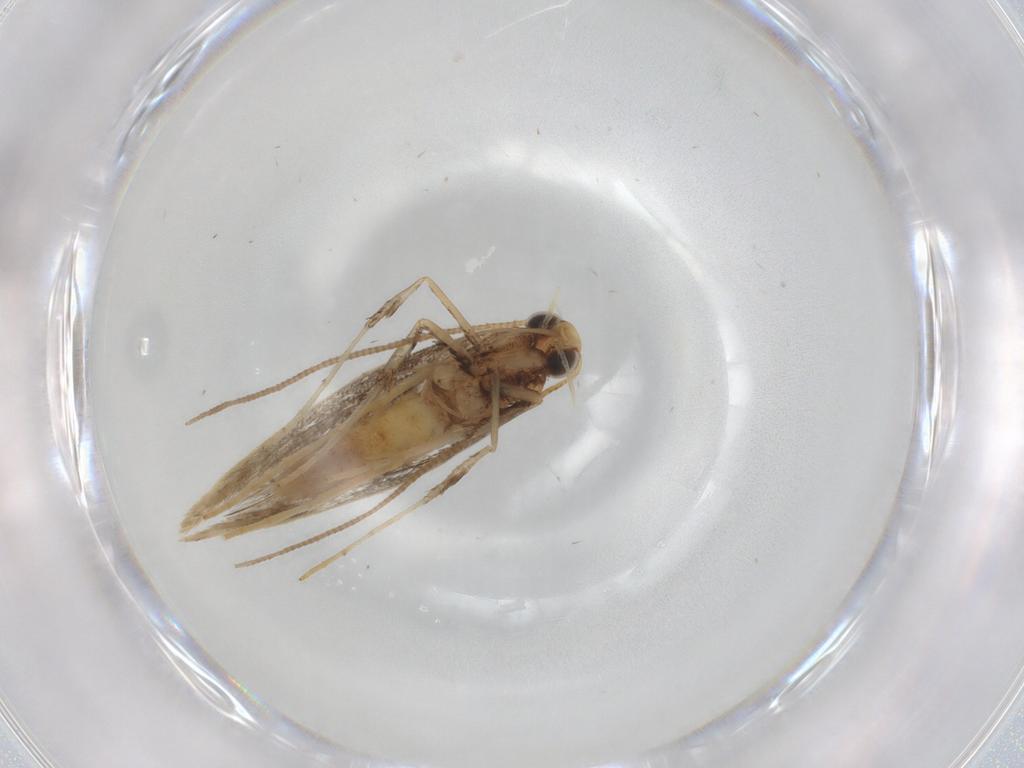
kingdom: Animalia
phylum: Arthropoda
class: Insecta
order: Lepidoptera
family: Gracillariidae
